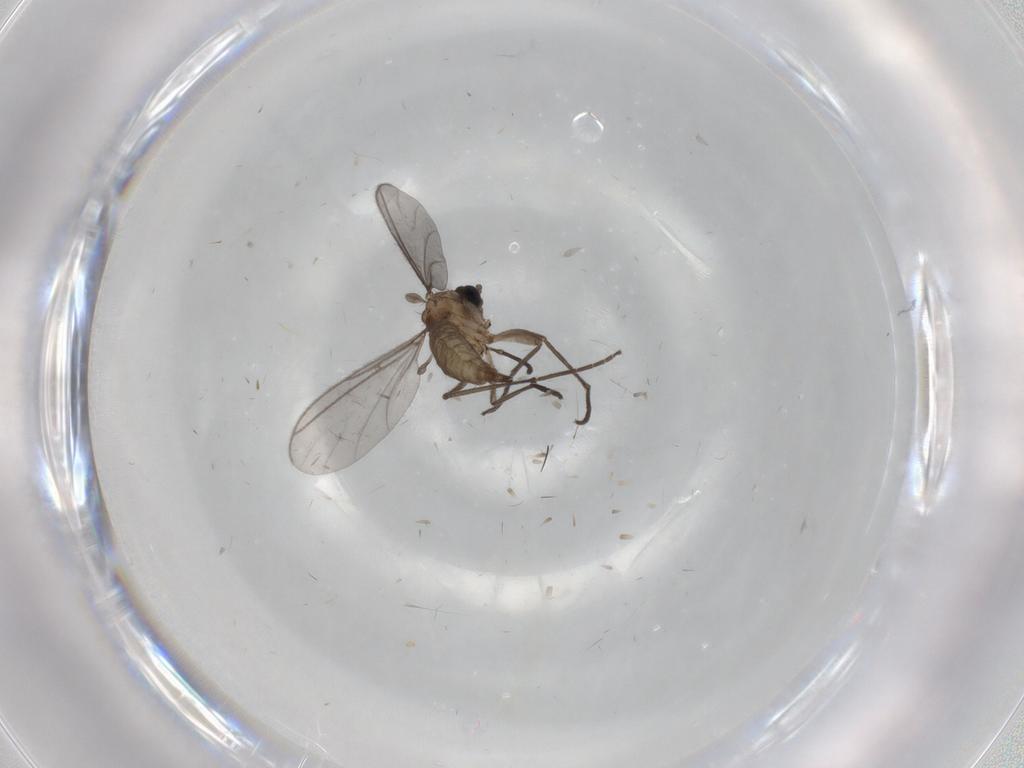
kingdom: Animalia
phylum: Arthropoda
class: Insecta
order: Diptera
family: Sciaridae
